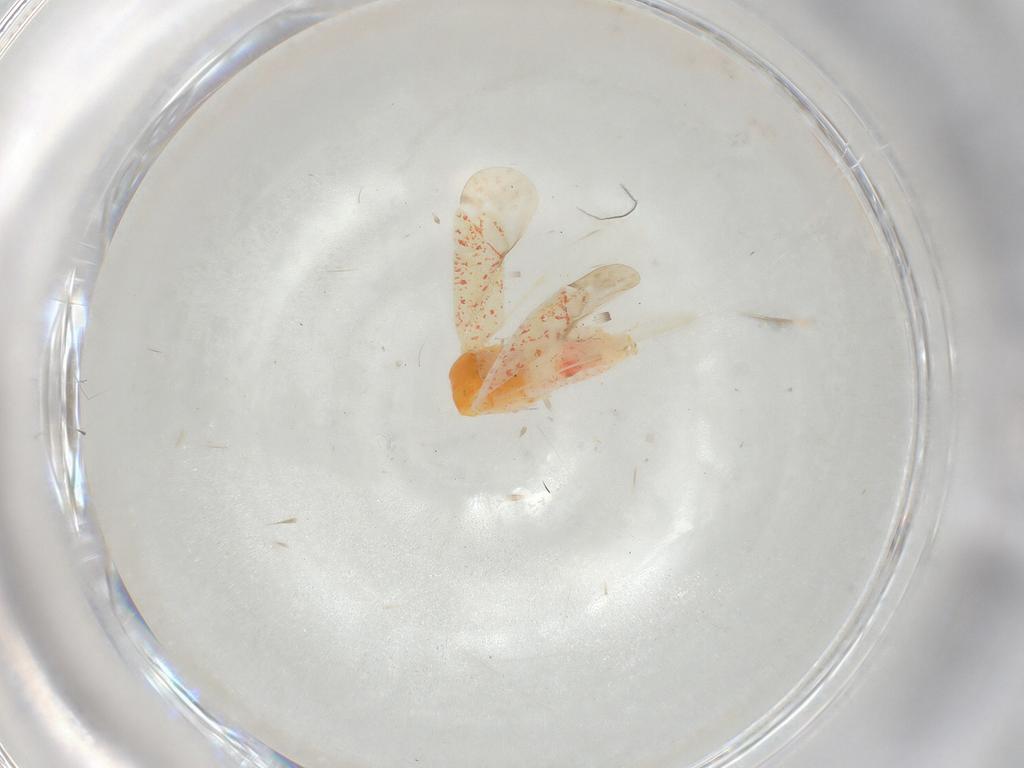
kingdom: Animalia
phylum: Arthropoda
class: Insecta
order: Hemiptera
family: Miridae
